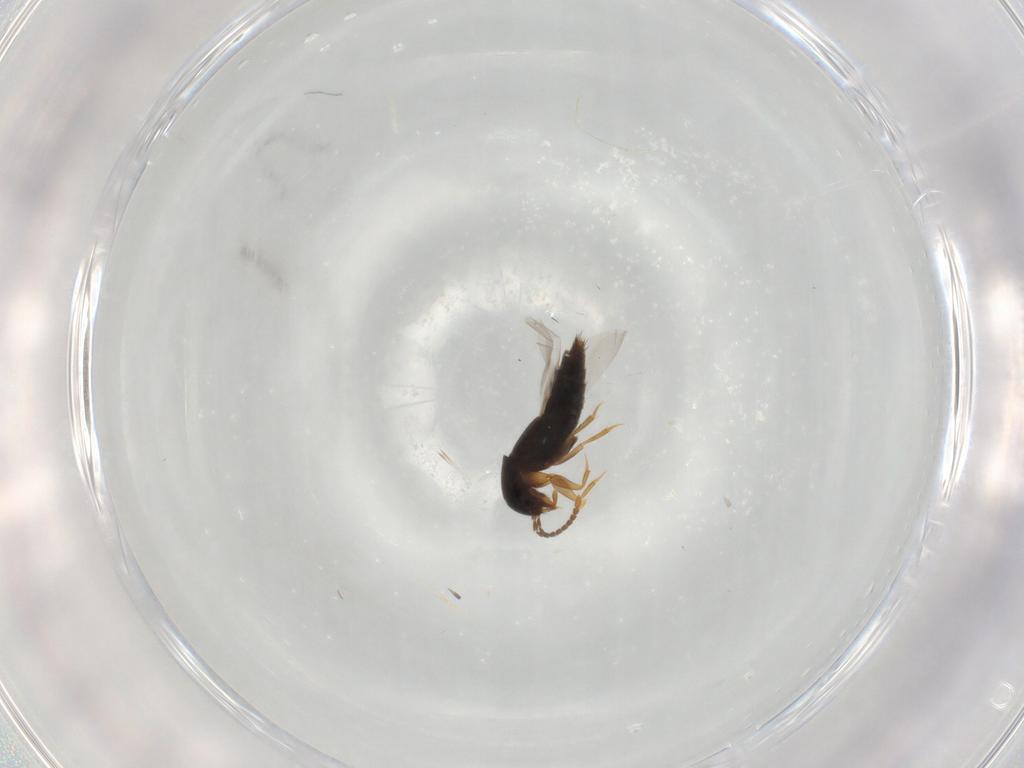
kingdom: Animalia
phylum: Arthropoda
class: Insecta
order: Coleoptera
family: Staphylinidae
